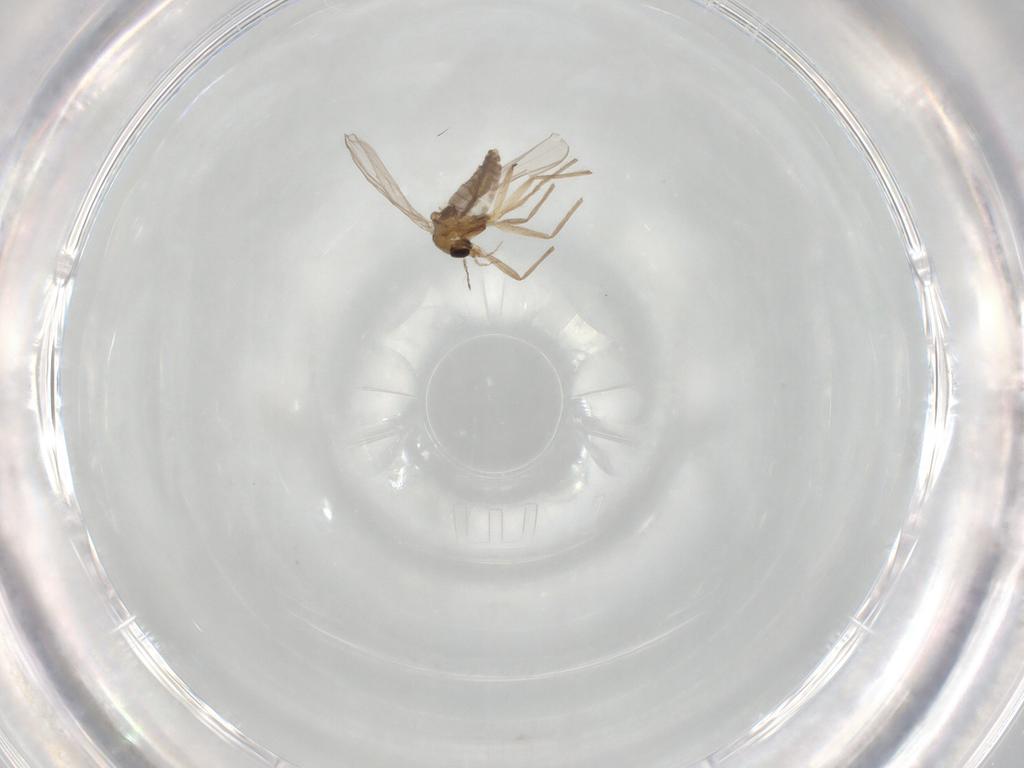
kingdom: Animalia
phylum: Arthropoda
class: Insecta
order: Diptera
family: Chironomidae
